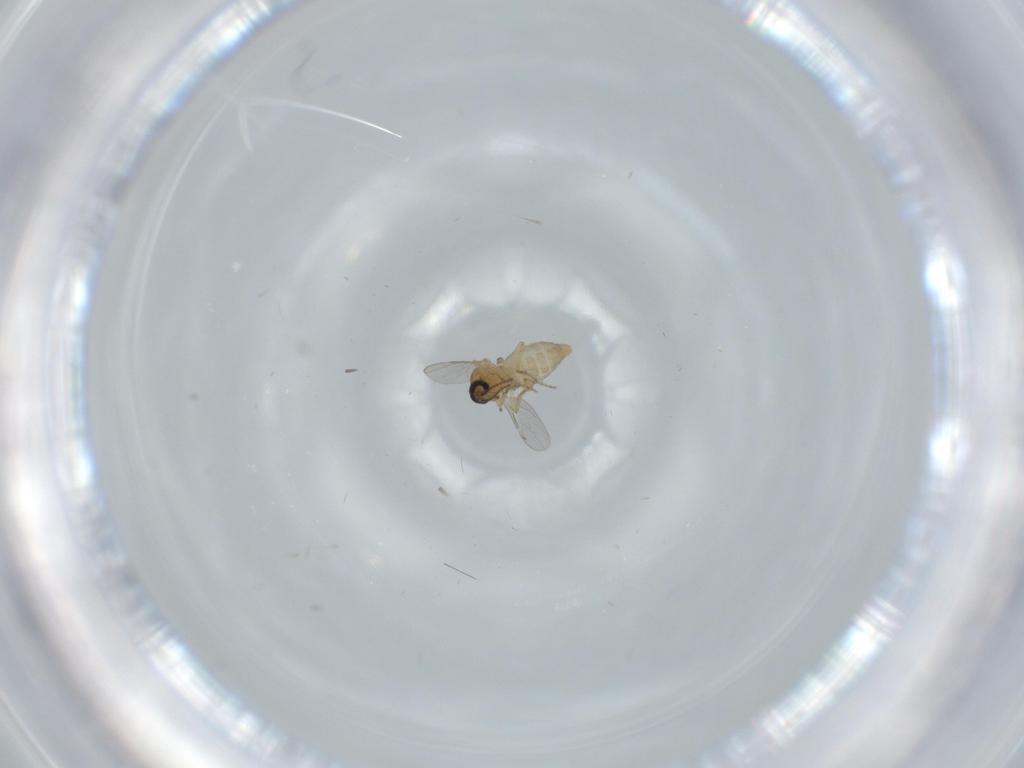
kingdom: Animalia
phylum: Arthropoda
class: Insecta
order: Diptera
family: Ceratopogonidae
